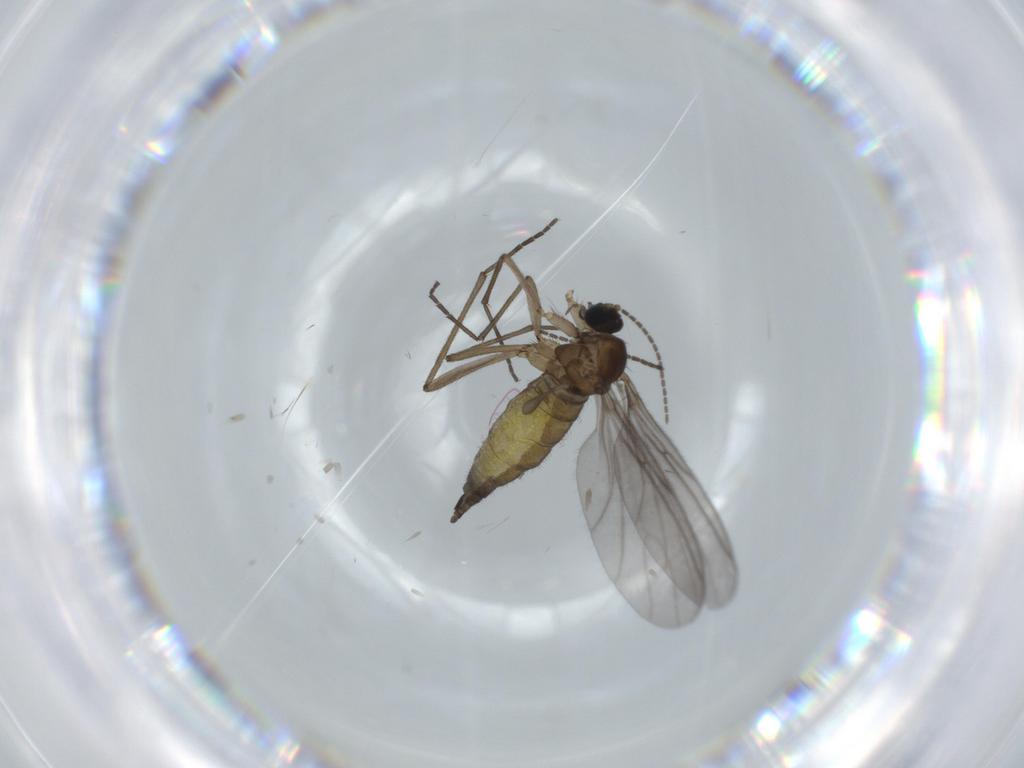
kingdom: Animalia
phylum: Arthropoda
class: Insecta
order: Diptera
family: Sciaridae
